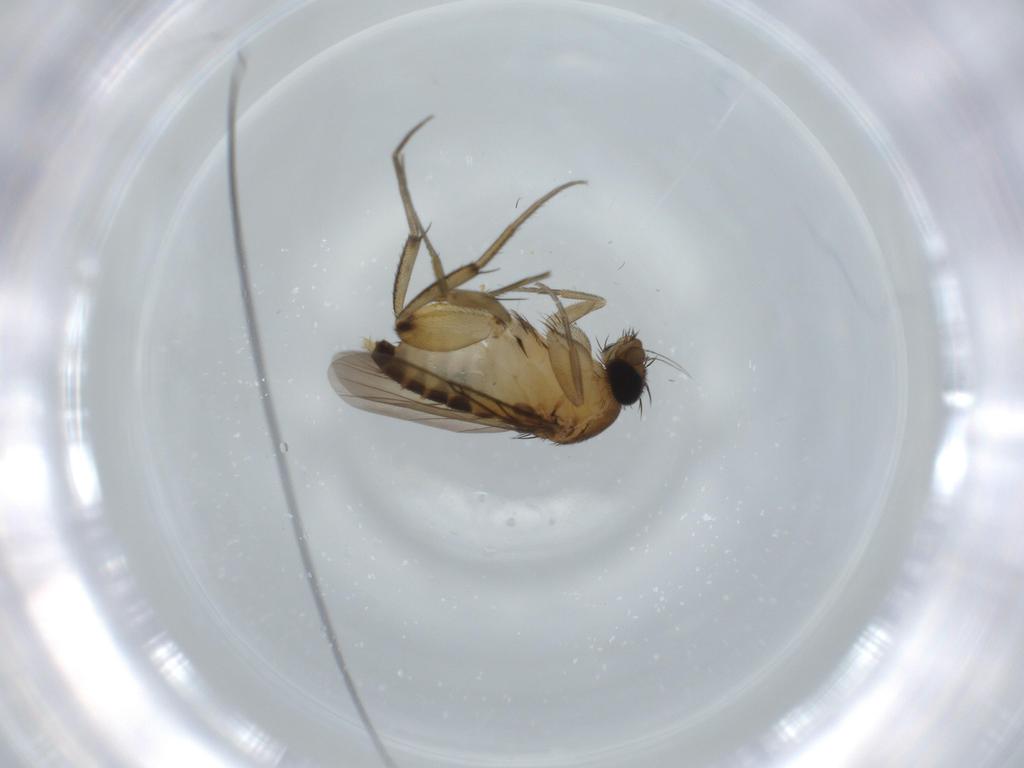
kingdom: Animalia
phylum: Arthropoda
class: Insecta
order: Diptera
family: Phoridae
